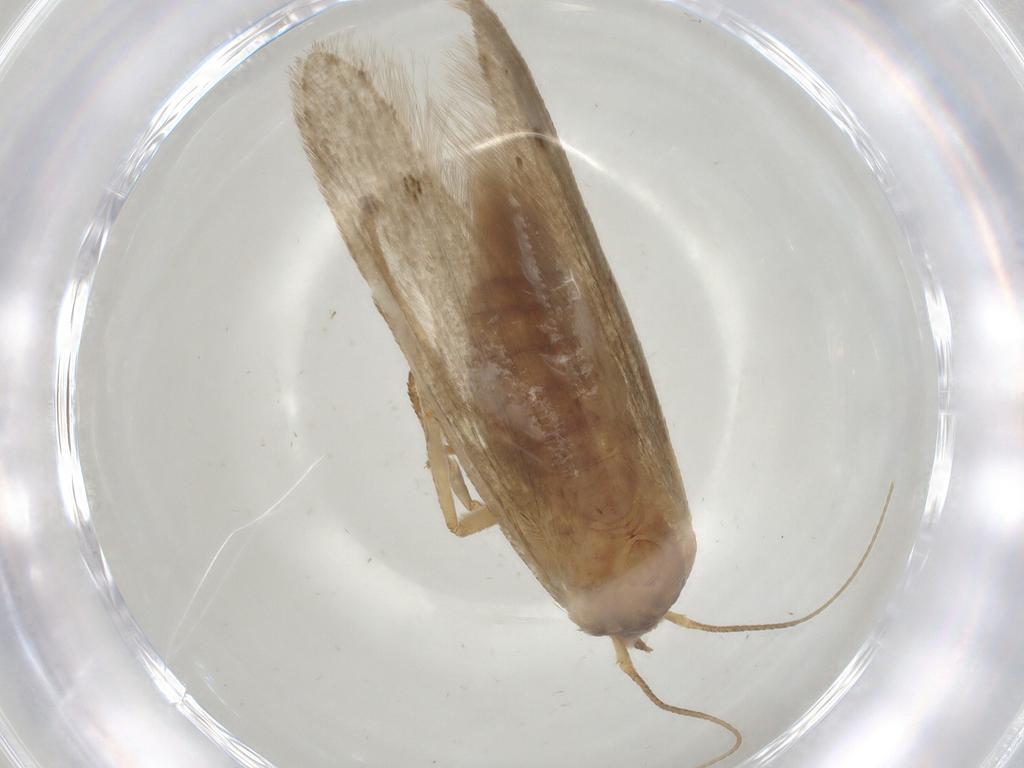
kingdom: Animalia
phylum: Arthropoda
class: Insecta
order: Lepidoptera
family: Coleophoridae
